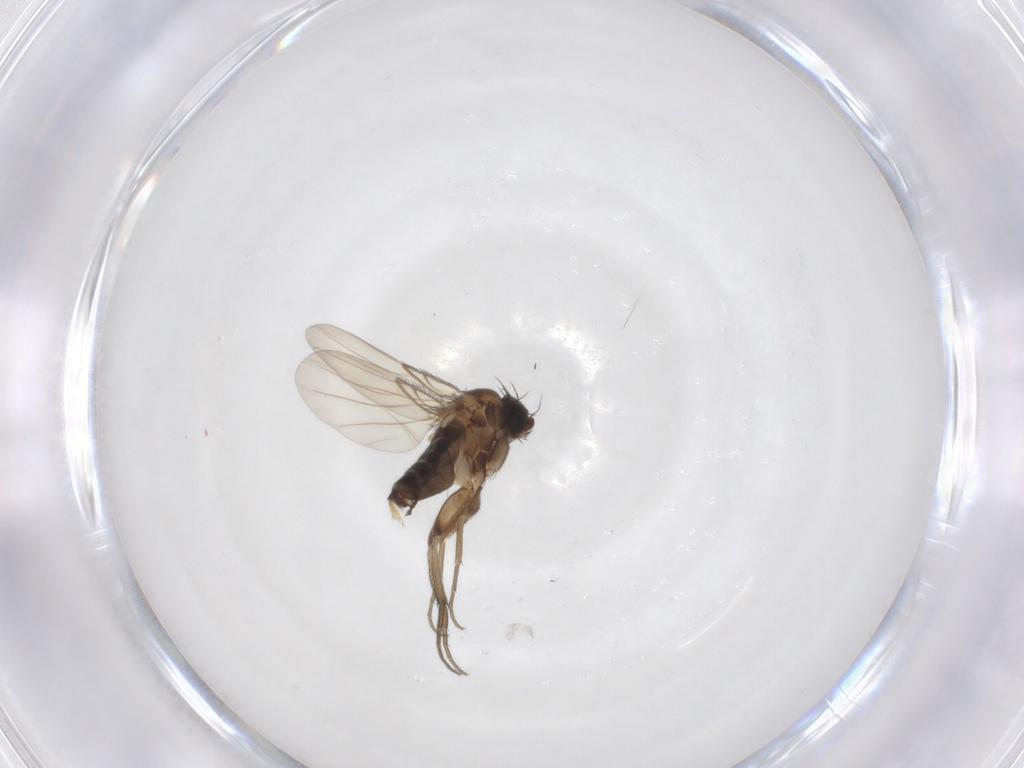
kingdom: Animalia
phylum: Arthropoda
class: Insecta
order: Diptera
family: Phoridae
